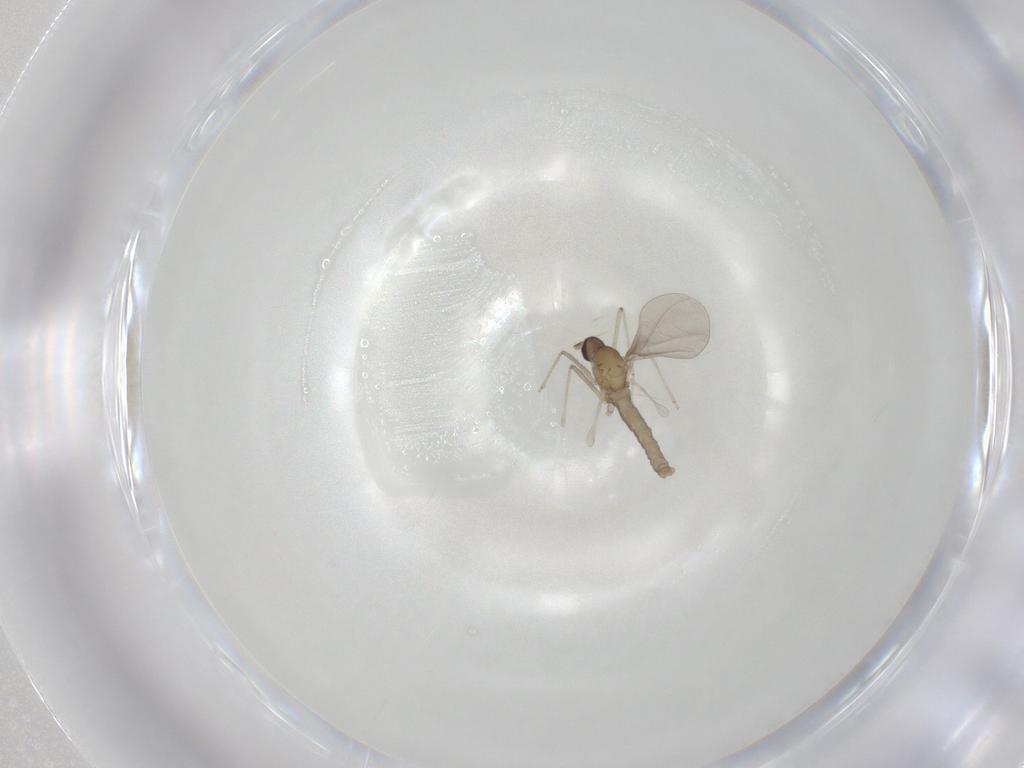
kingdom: Animalia
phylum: Arthropoda
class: Insecta
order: Diptera
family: Cecidomyiidae
